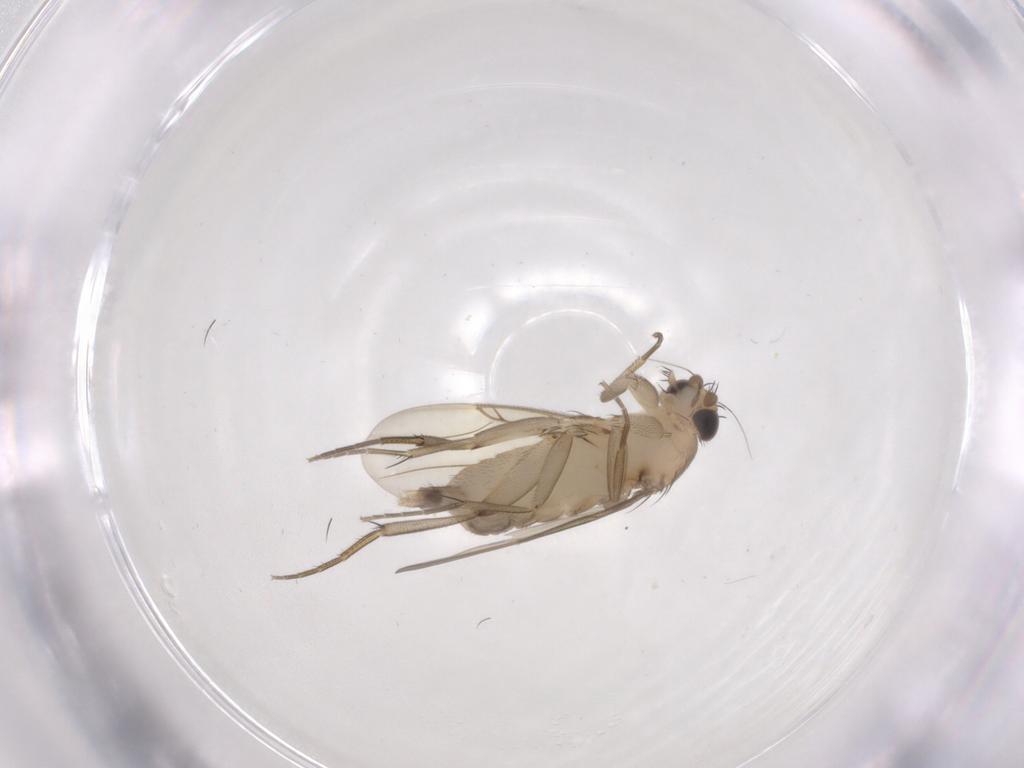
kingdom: Animalia
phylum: Arthropoda
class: Insecta
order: Diptera
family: Phoridae
